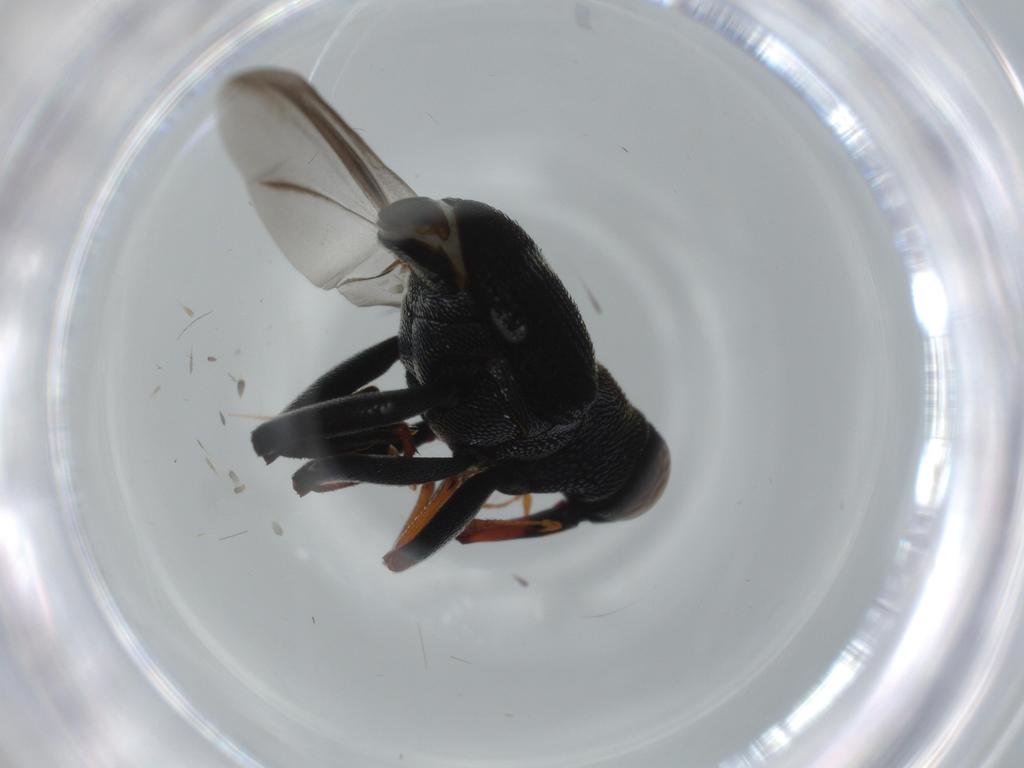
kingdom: Animalia
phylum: Arthropoda
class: Insecta
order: Coleoptera
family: Curculionidae
